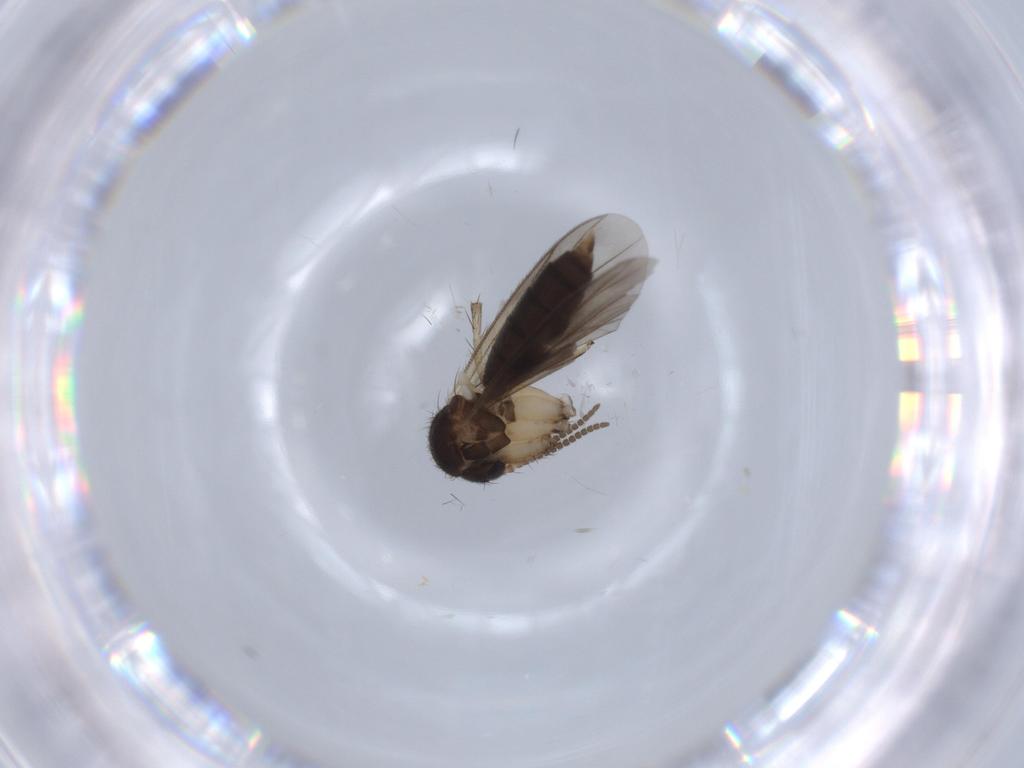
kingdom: Animalia
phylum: Arthropoda
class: Insecta
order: Diptera
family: Phoridae
